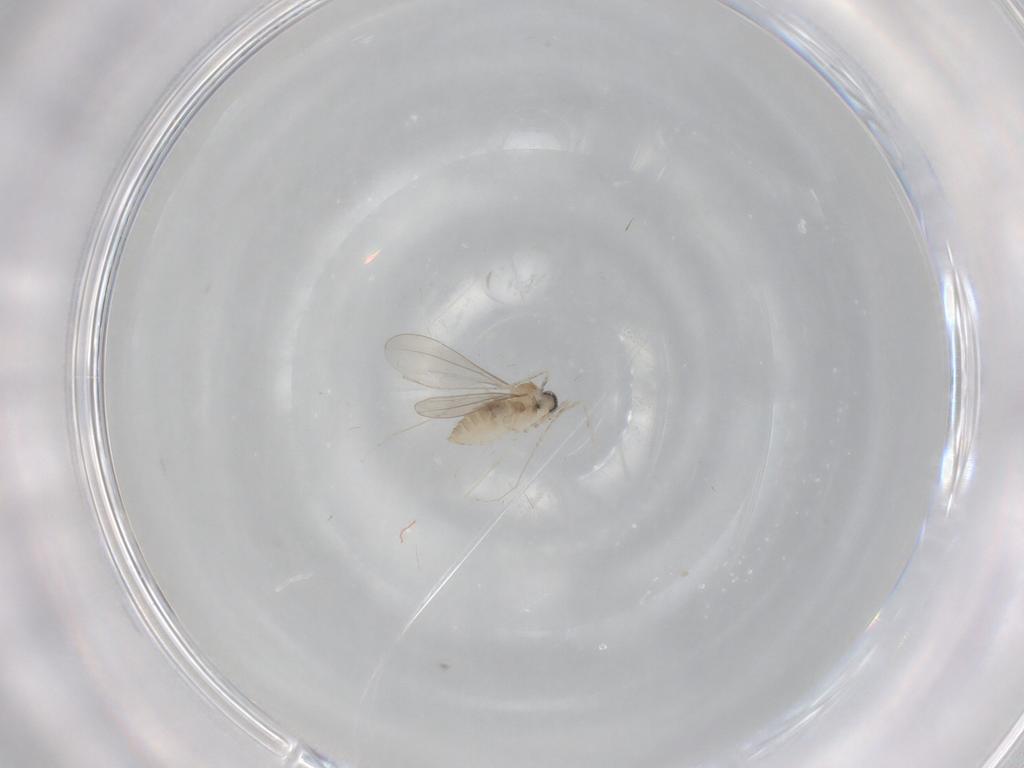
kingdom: Animalia
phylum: Arthropoda
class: Insecta
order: Diptera
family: Cecidomyiidae
